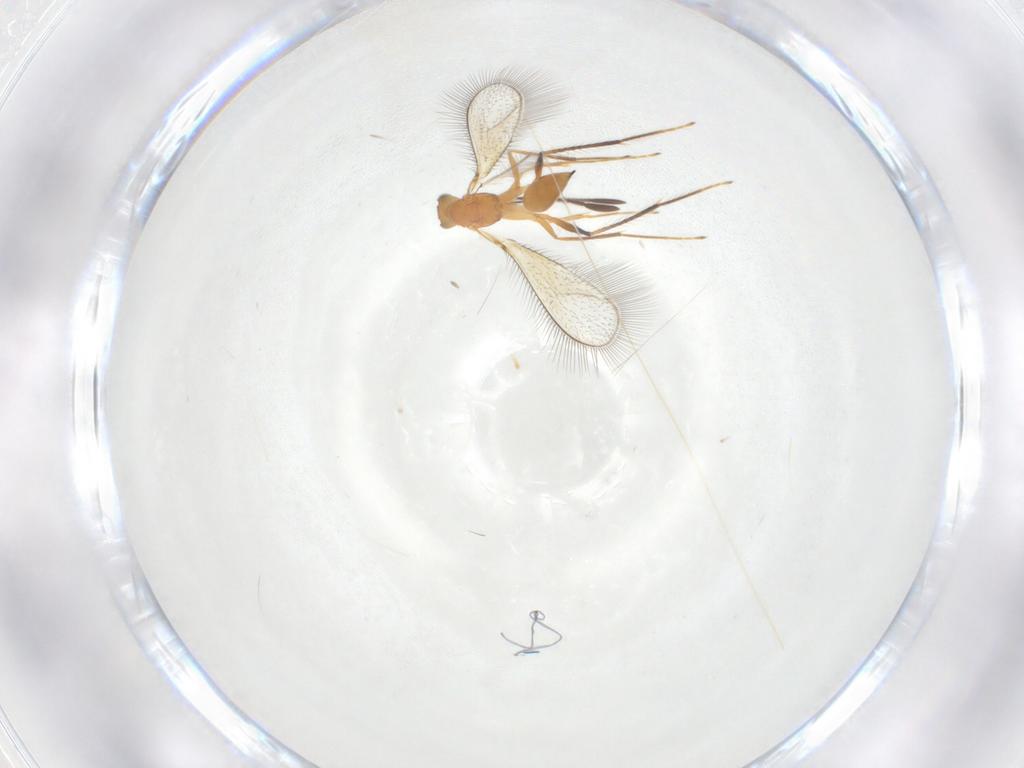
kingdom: Animalia
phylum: Arthropoda
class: Insecta
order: Hymenoptera
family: Mymaridae
